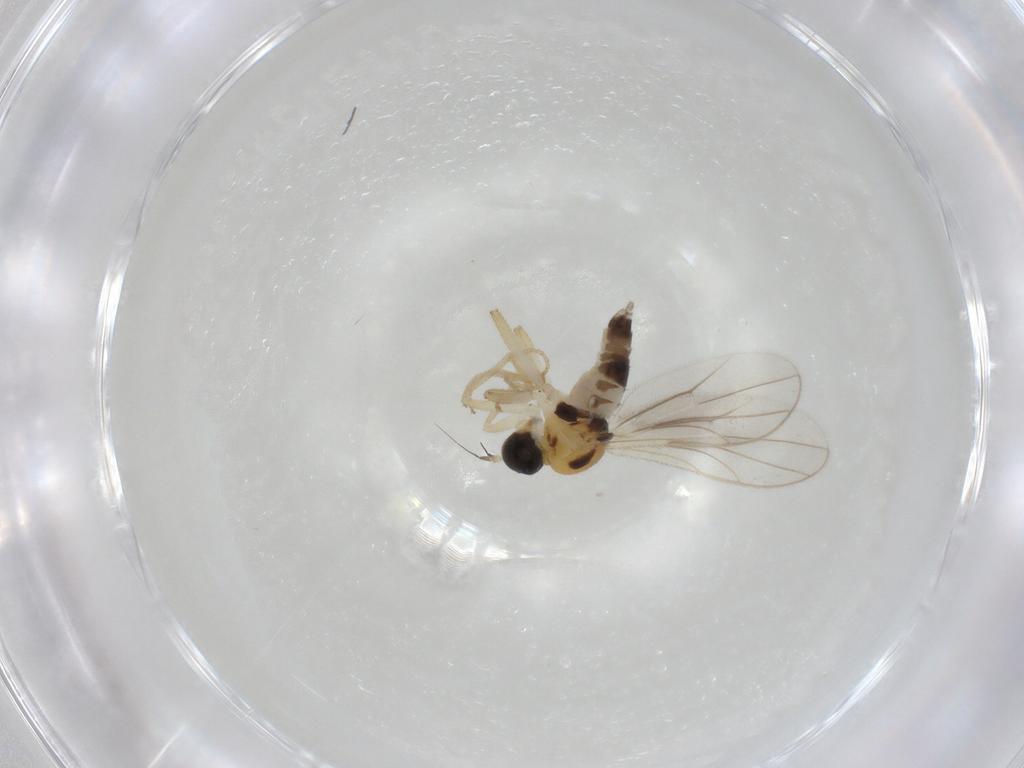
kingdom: Animalia
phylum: Arthropoda
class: Insecta
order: Diptera
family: Hybotidae
